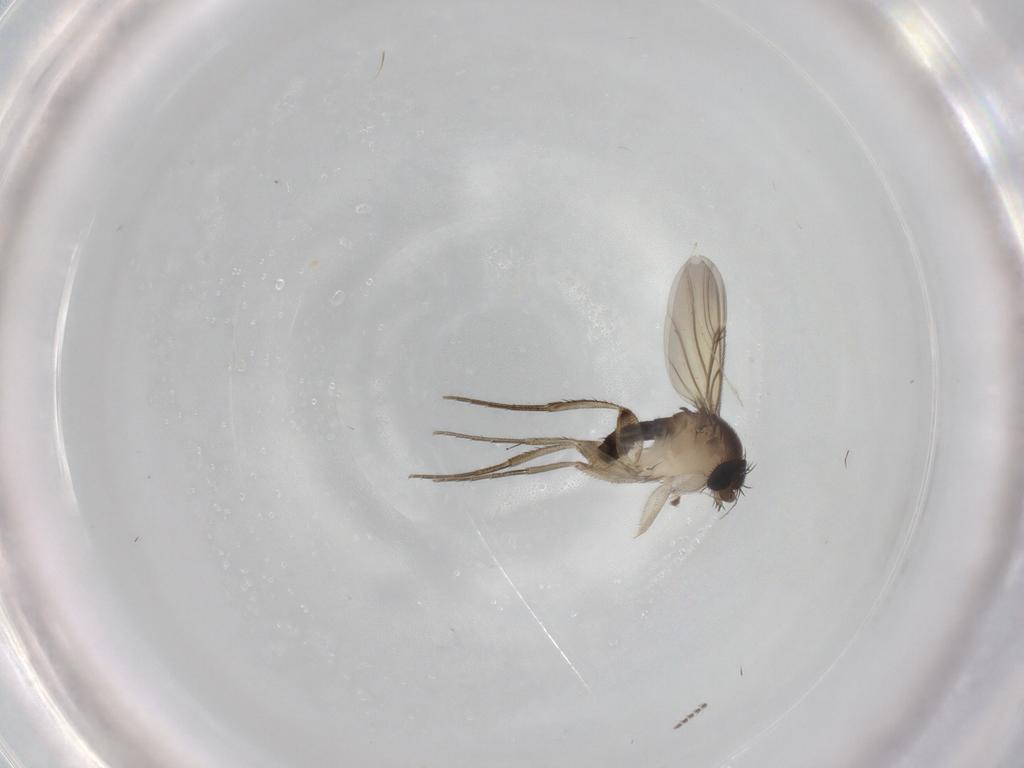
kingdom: Animalia
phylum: Arthropoda
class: Insecta
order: Diptera
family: Phoridae
